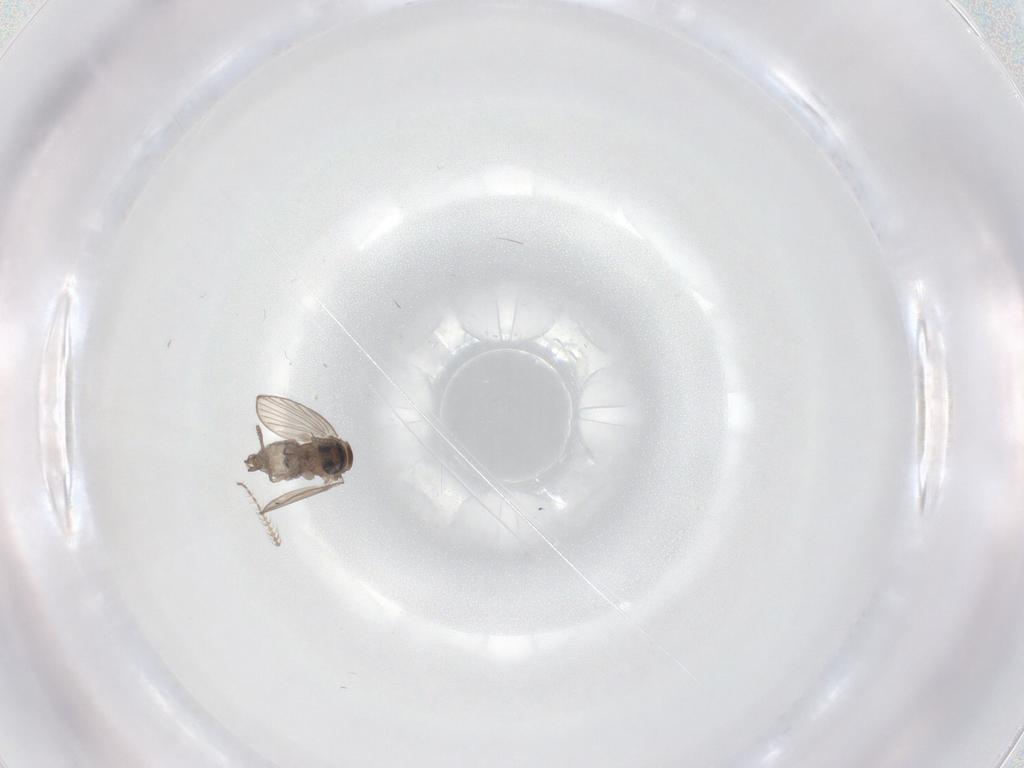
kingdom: Animalia
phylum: Arthropoda
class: Insecta
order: Diptera
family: Psychodidae
